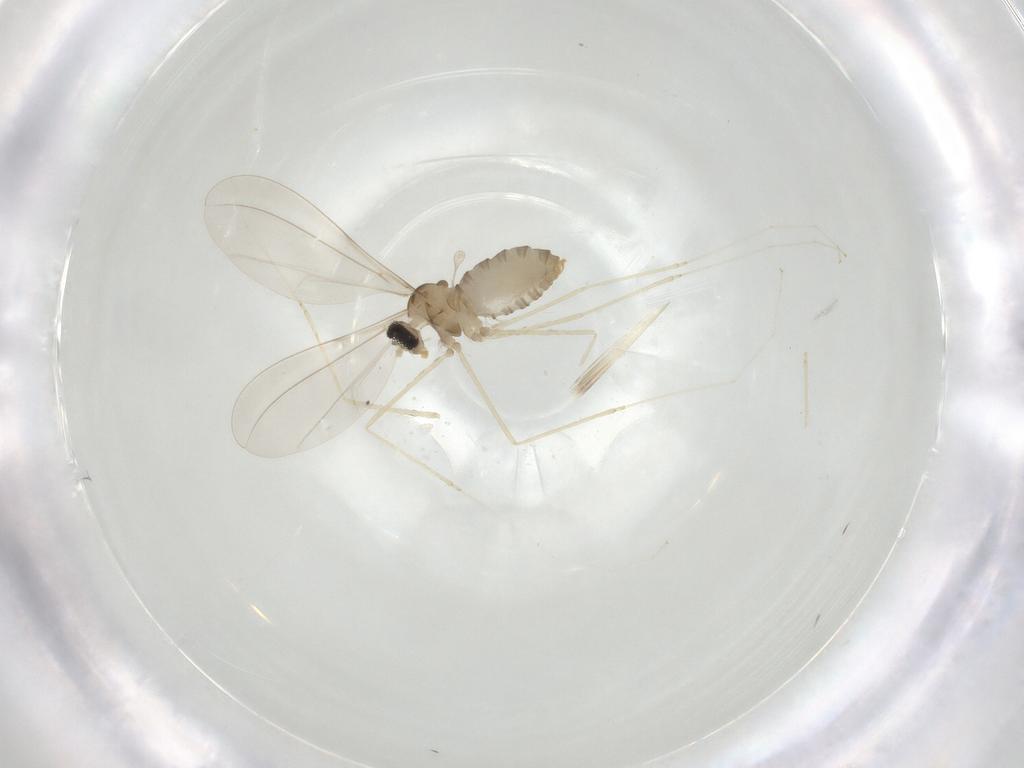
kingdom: Animalia
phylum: Arthropoda
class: Insecta
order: Diptera
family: Cecidomyiidae
